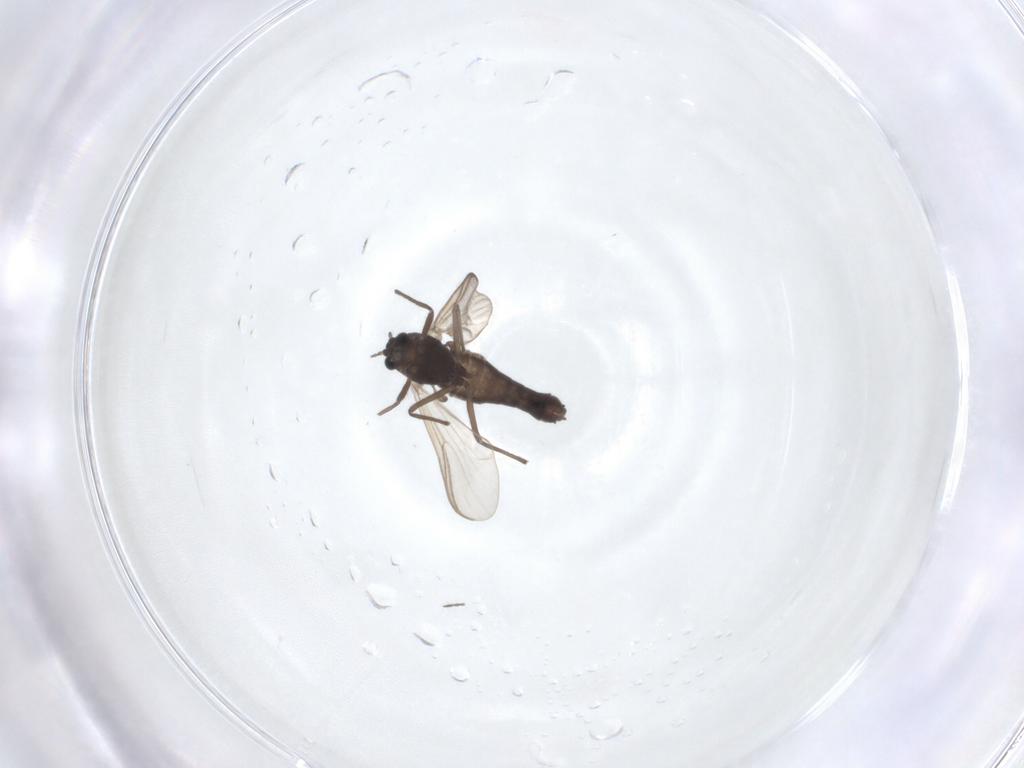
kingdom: Animalia
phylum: Arthropoda
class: Insecta
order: Diptera
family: Chironomidae
